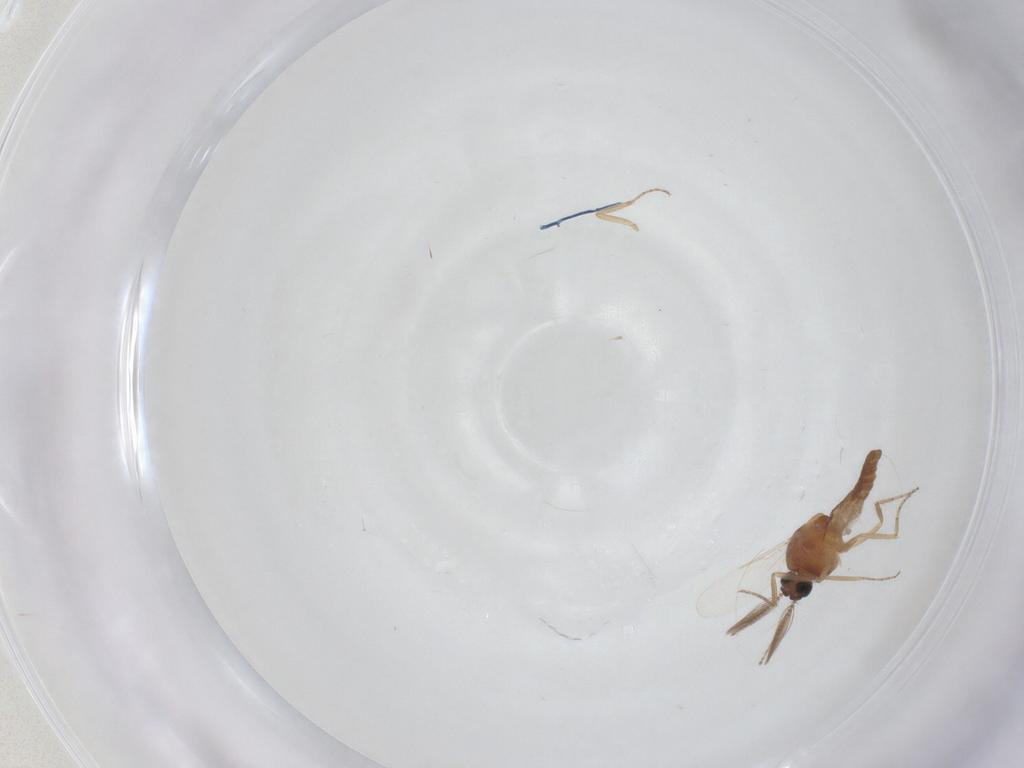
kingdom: Animalia
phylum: Arthropoda
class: Insecta
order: Diptera
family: Ceratopogonidae
